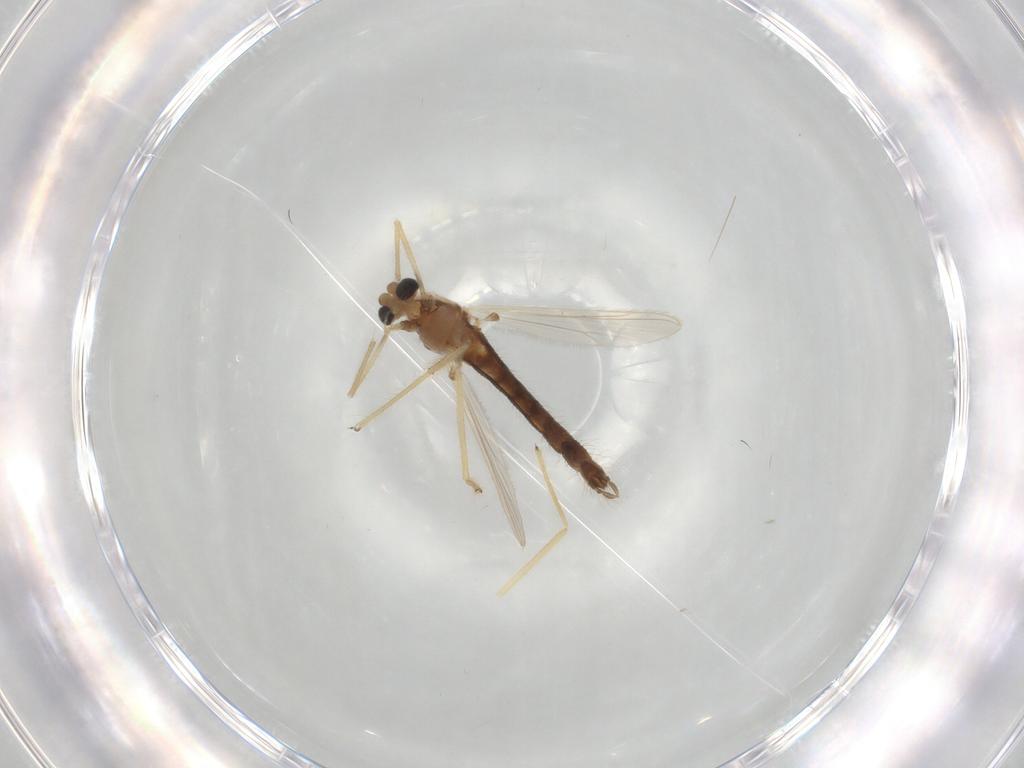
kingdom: Animalia
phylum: Arthropoda
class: Insecta
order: Diptera
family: Chironomidae
